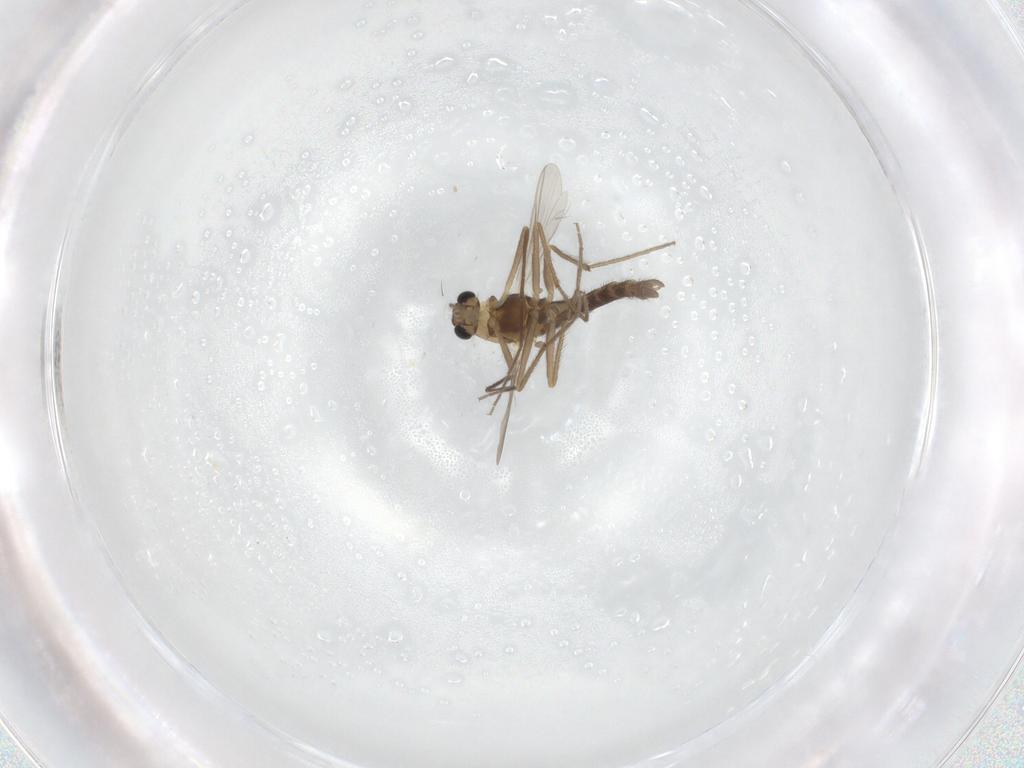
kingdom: Animalia
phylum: Arthropoda
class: Insecta
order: Diptera
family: Chironomidae
